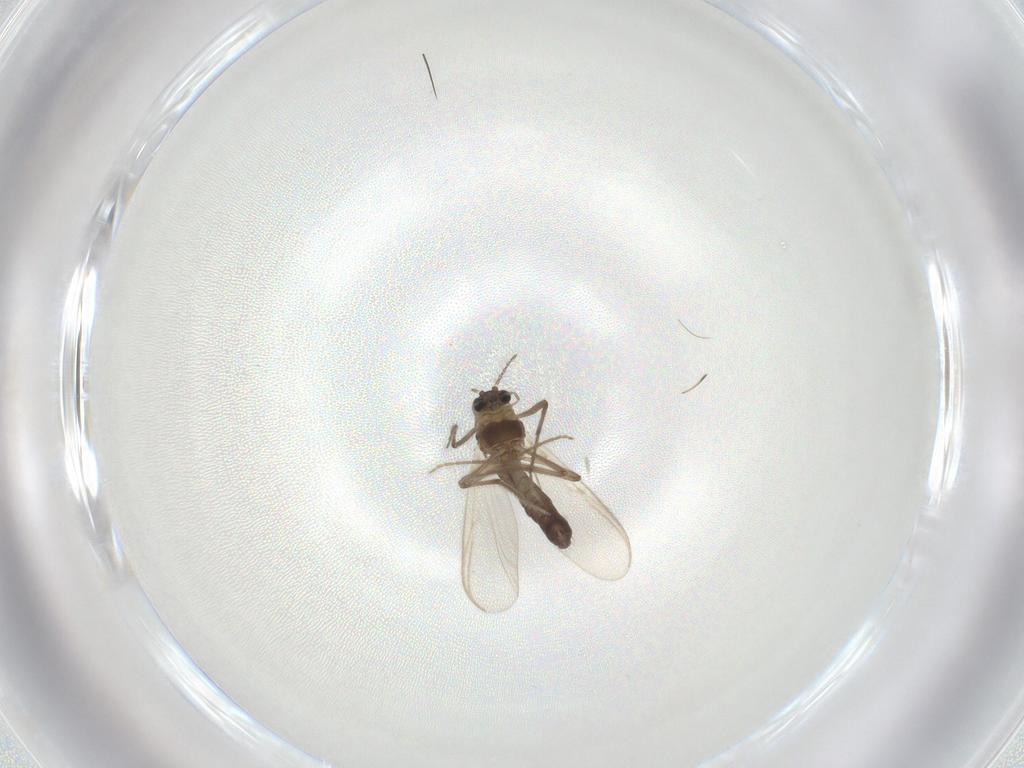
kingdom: Animalia
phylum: Arthropoda
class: Insecta
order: Diptera
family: Chironomidae
